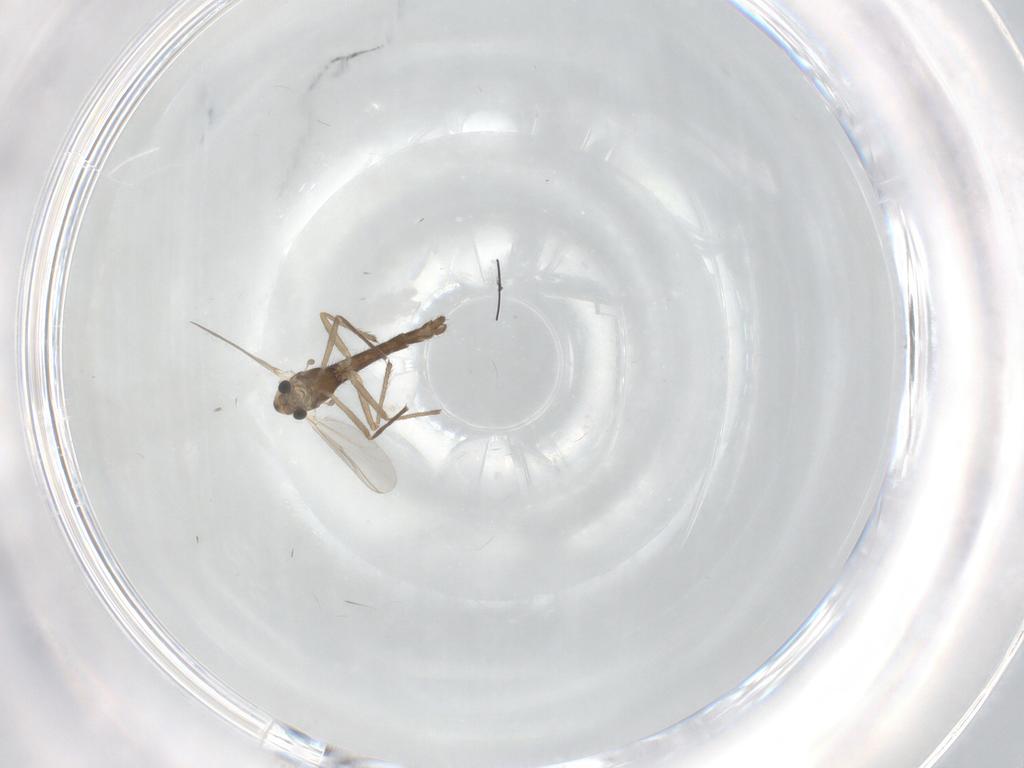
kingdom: Animalia
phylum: Arthropoda
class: Insecta
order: Diptera
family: Chironomidae
